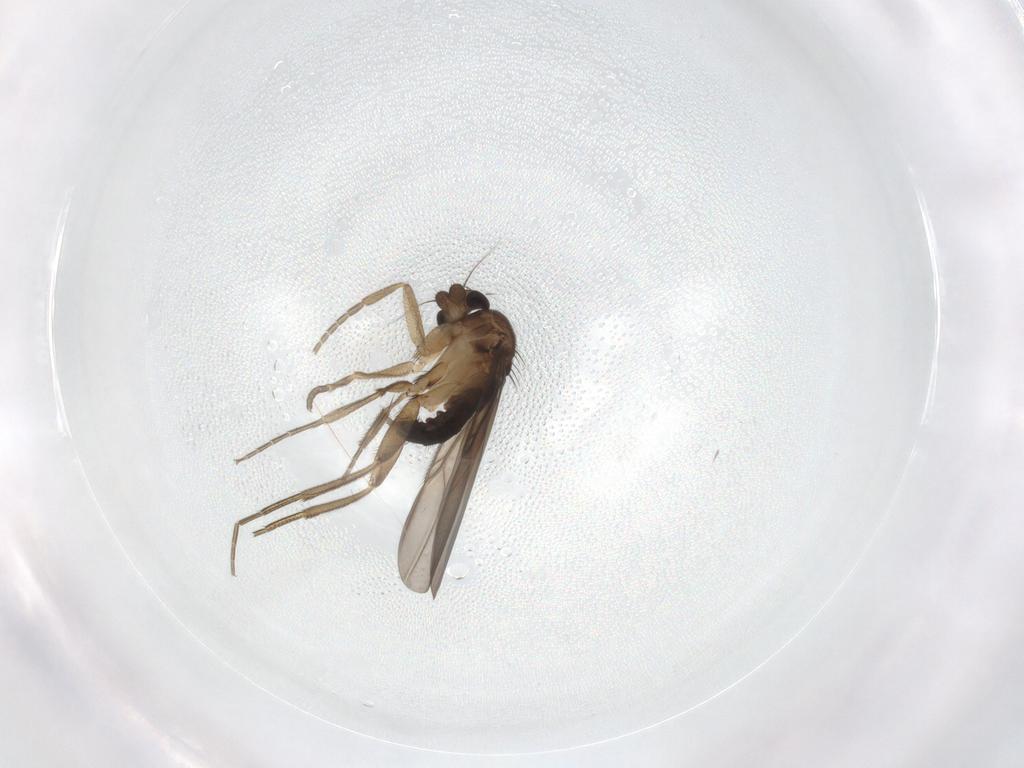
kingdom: Animalia
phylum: Arthropoda
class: Insecta
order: Diptera
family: Phoridae
